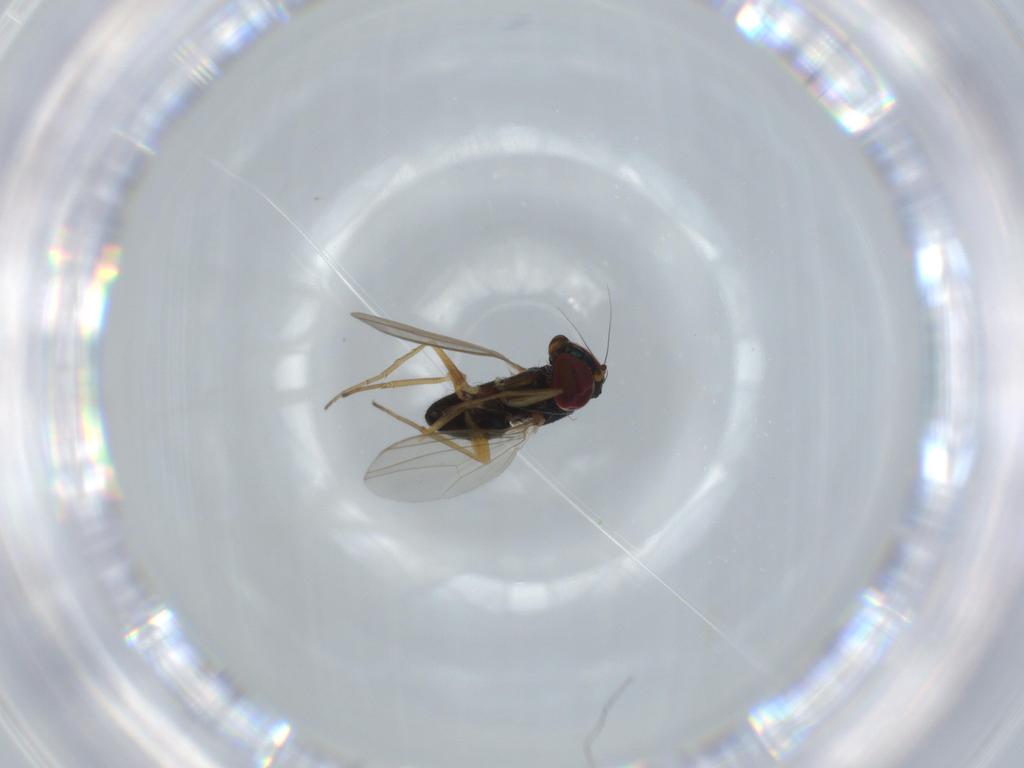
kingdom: Animalia
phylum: Arthropoda
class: Insecta
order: Diptera
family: Dolichopodidae
